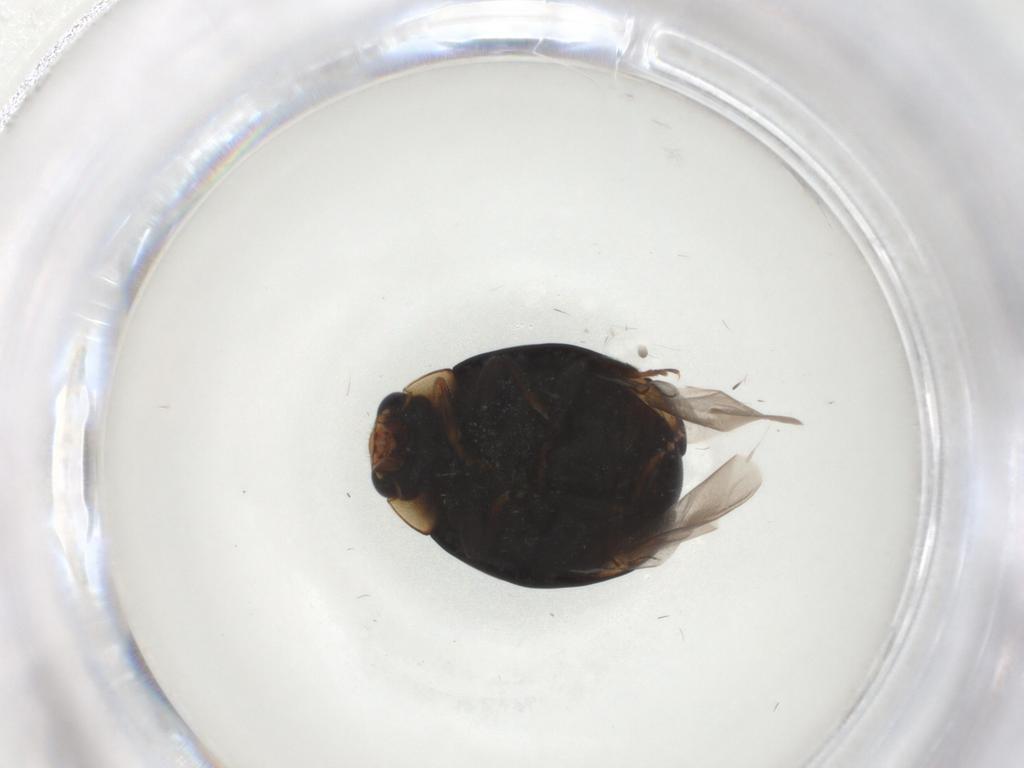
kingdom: Animalia
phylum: Arthropoda
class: Insecta
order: Coleoptera
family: Coccinellidae
